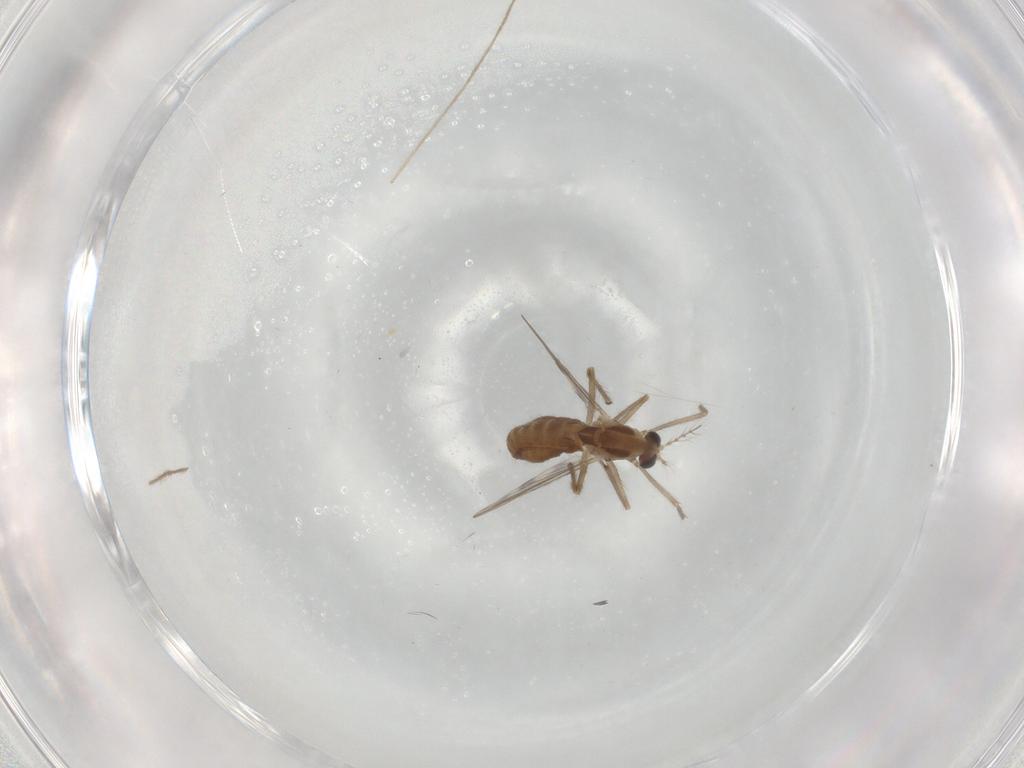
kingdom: Animalia
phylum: Arthropoda
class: Insecta
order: Diptera
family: Chironomidae
